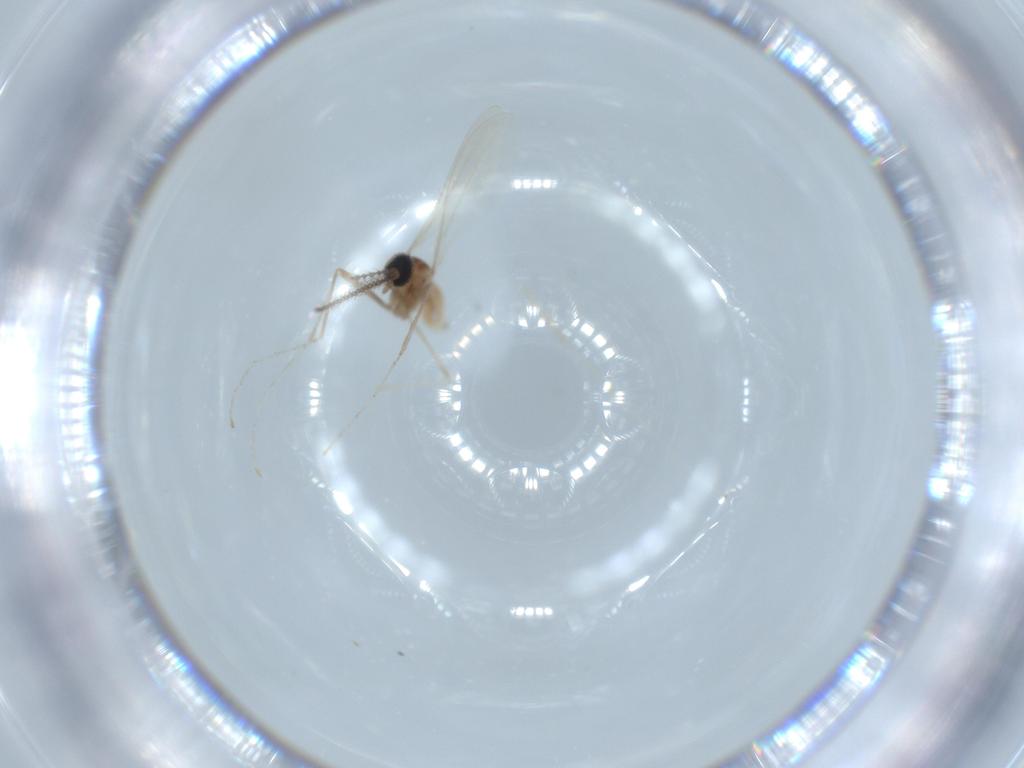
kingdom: Animalia
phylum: Arthropoda
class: Insecta
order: Diptera
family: Cecidomyiidae
